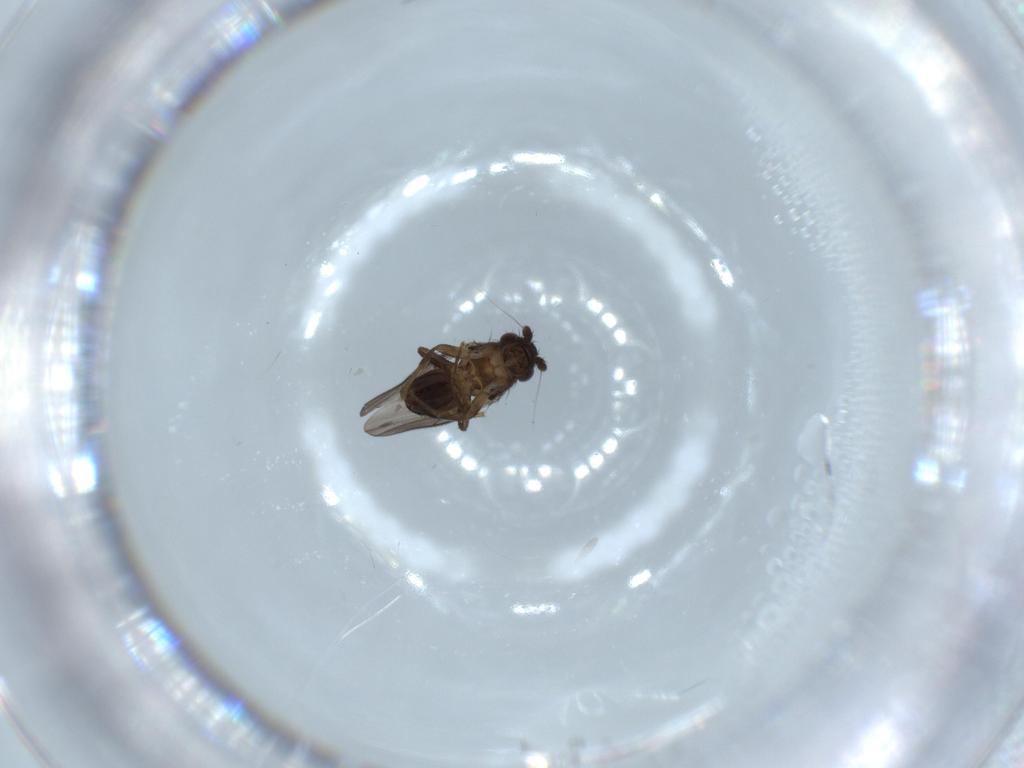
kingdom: Animalia
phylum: Arthropoda
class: Insecta
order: Diptera
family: Sphaeroceridae
